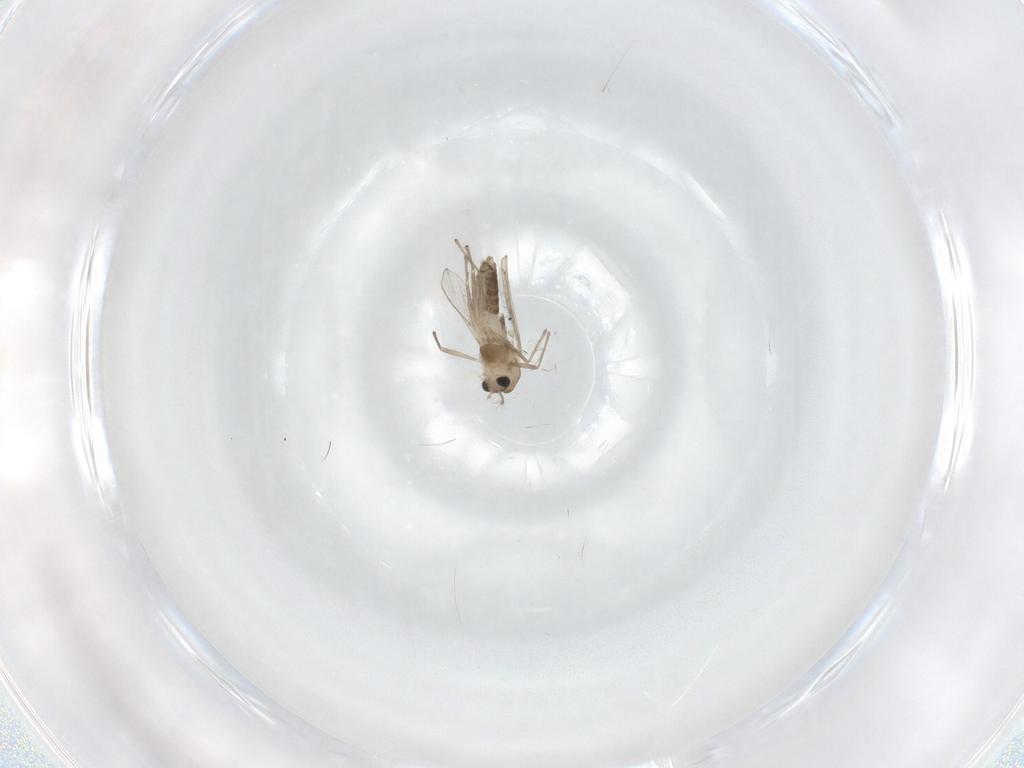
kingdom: Animalia
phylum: Arthropoda
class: Insecta
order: Diptera
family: Chironomidae
